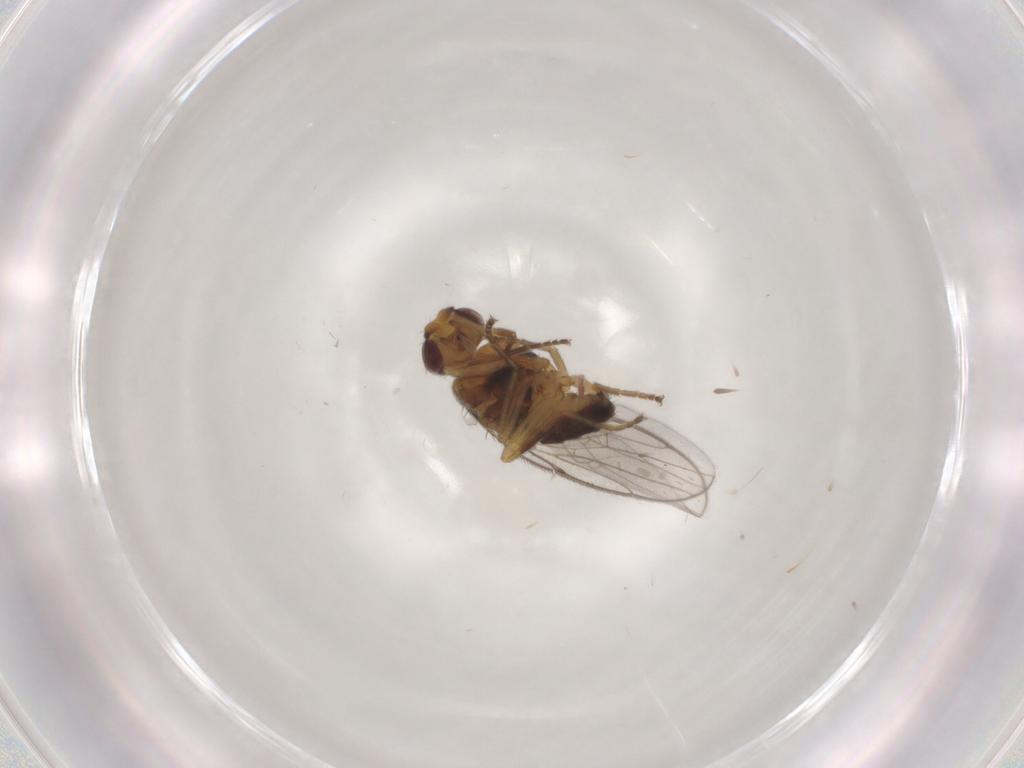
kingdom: Animalia
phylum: Arthropoda
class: Insecta
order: Diptera
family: Chloropidae
